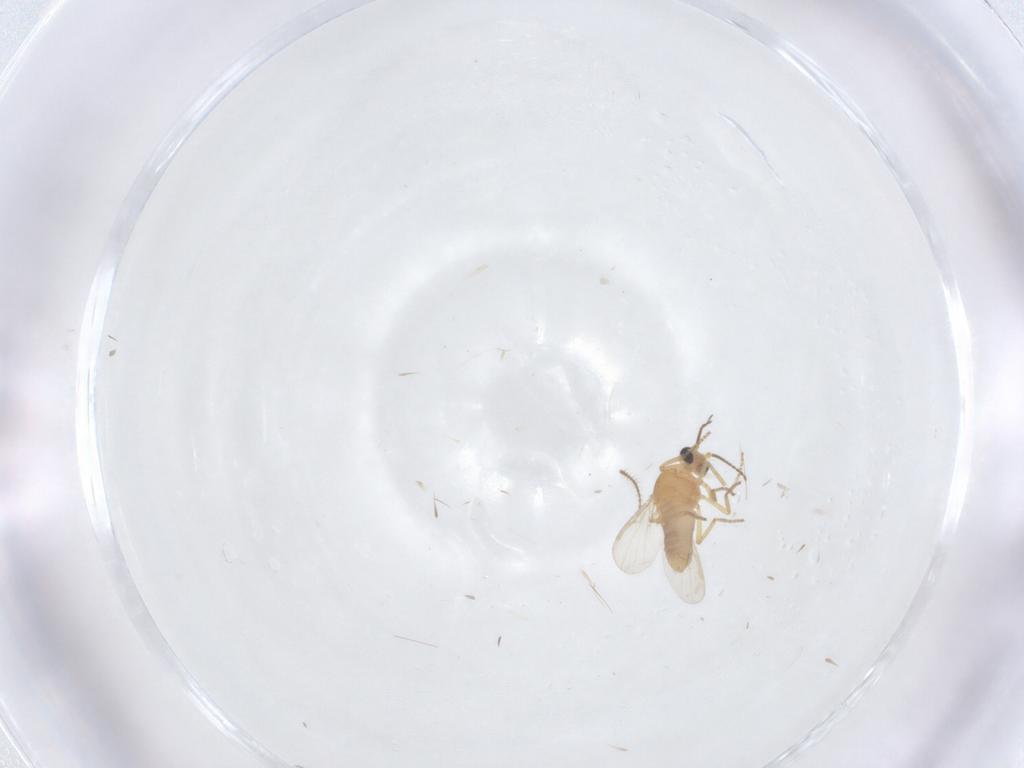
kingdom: Animalia
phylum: Arthropoda
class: Insecta
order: Diptera
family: Ceratopogonidae
